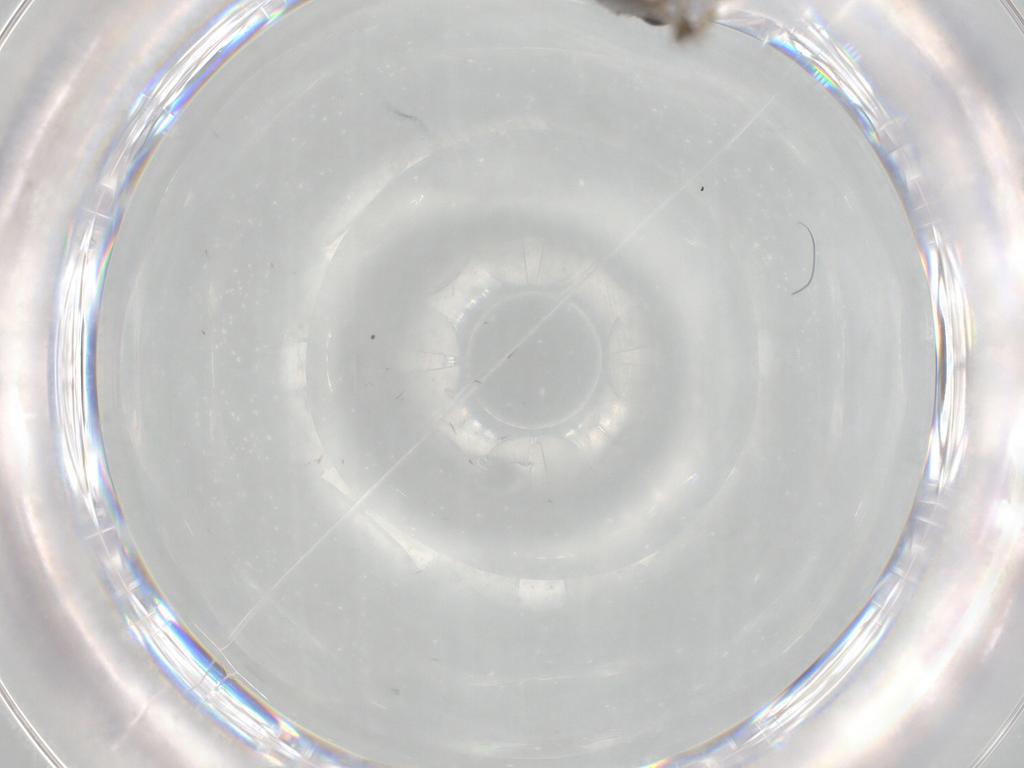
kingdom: Animalia
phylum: Arthropoda
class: Insecta
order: Diptera
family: Phoridae
